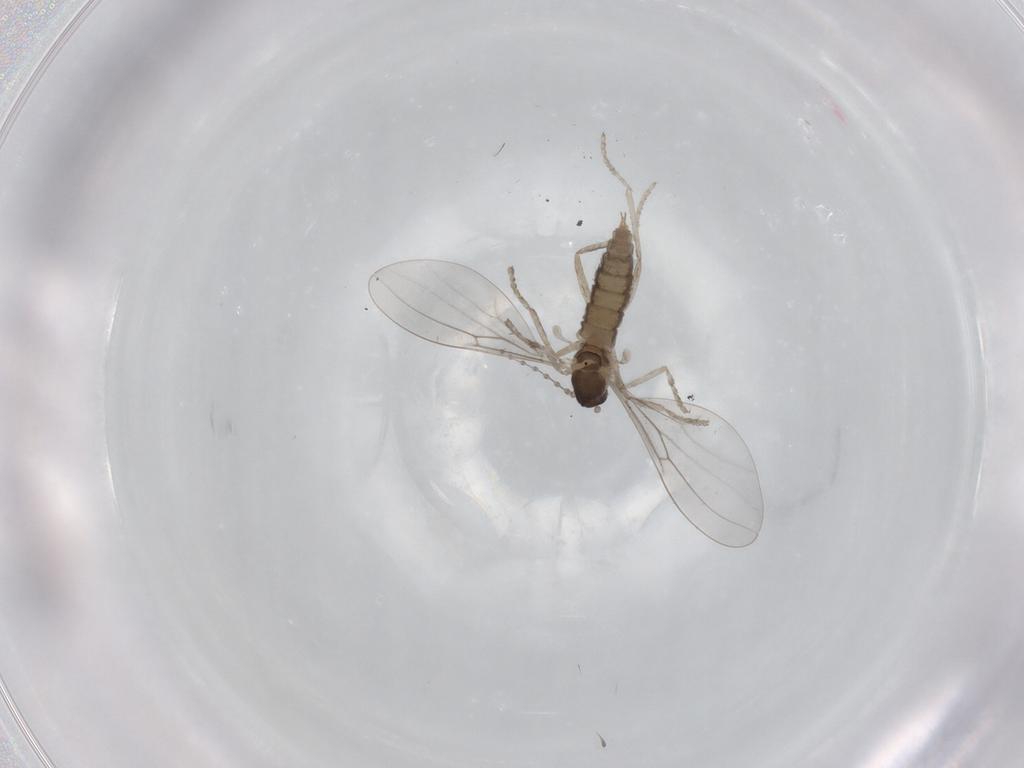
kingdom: Animalia
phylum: Arthropoda
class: Insecta
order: Diptera
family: Cecidomyiidae
